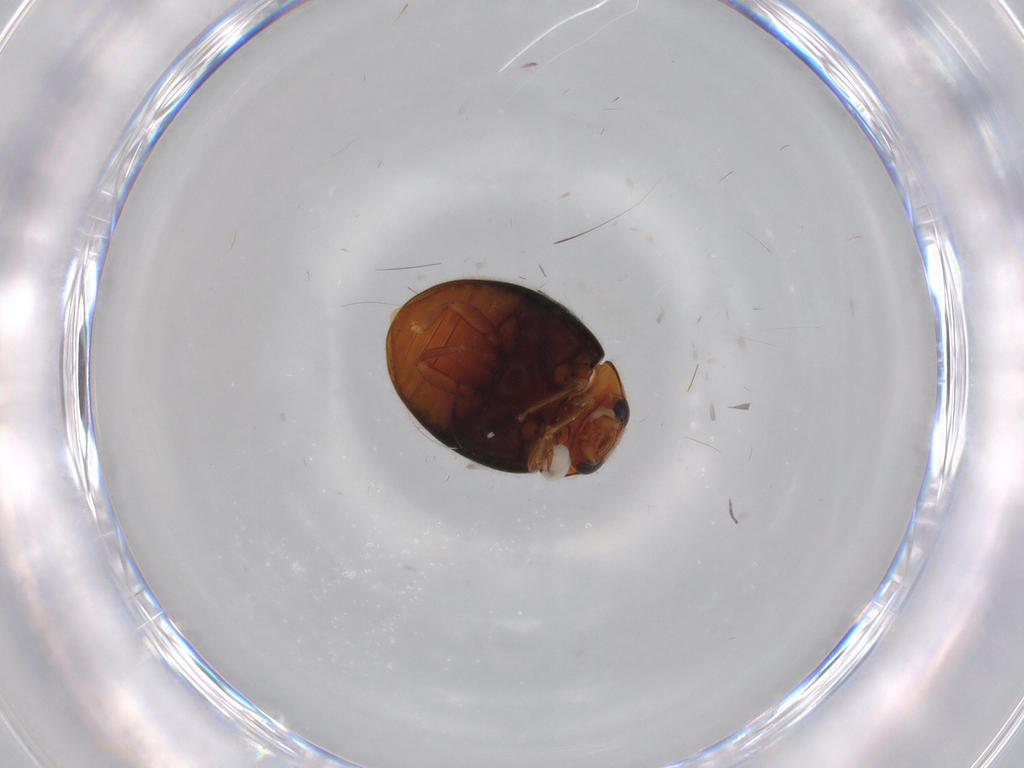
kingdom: Animalia
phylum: Arthropoda
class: Insecta
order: Coleoptera
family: Coccinellidae
